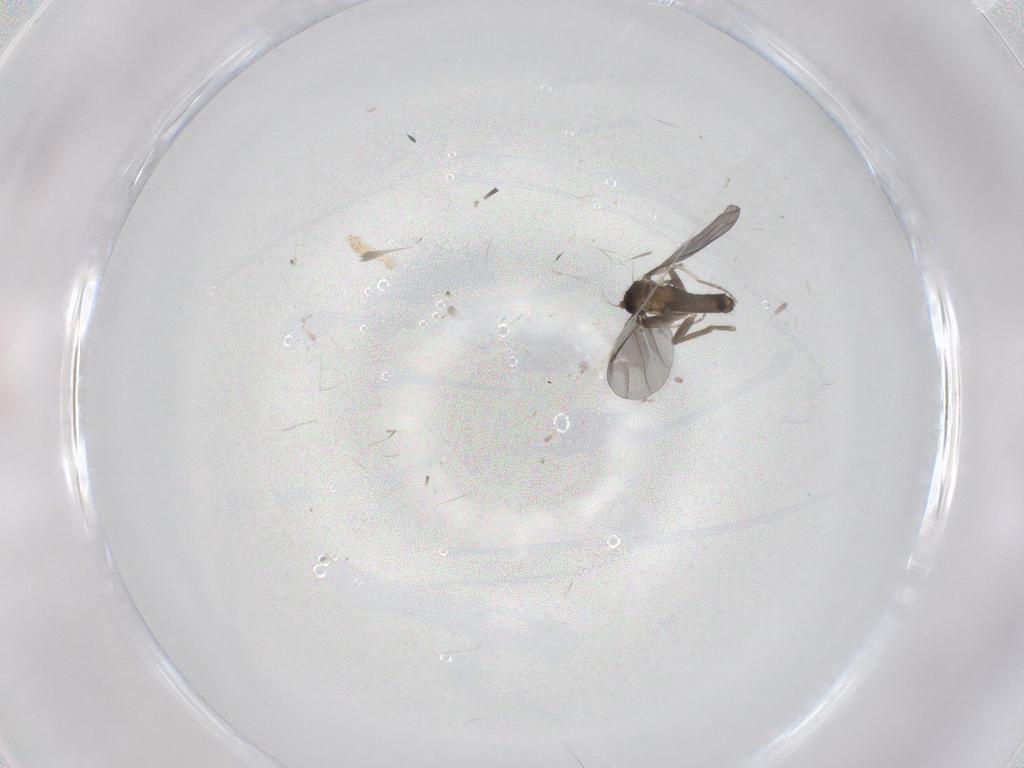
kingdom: Animalia
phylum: Arthropoda
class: Insecta
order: Diptera
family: Cecidomyiidae
